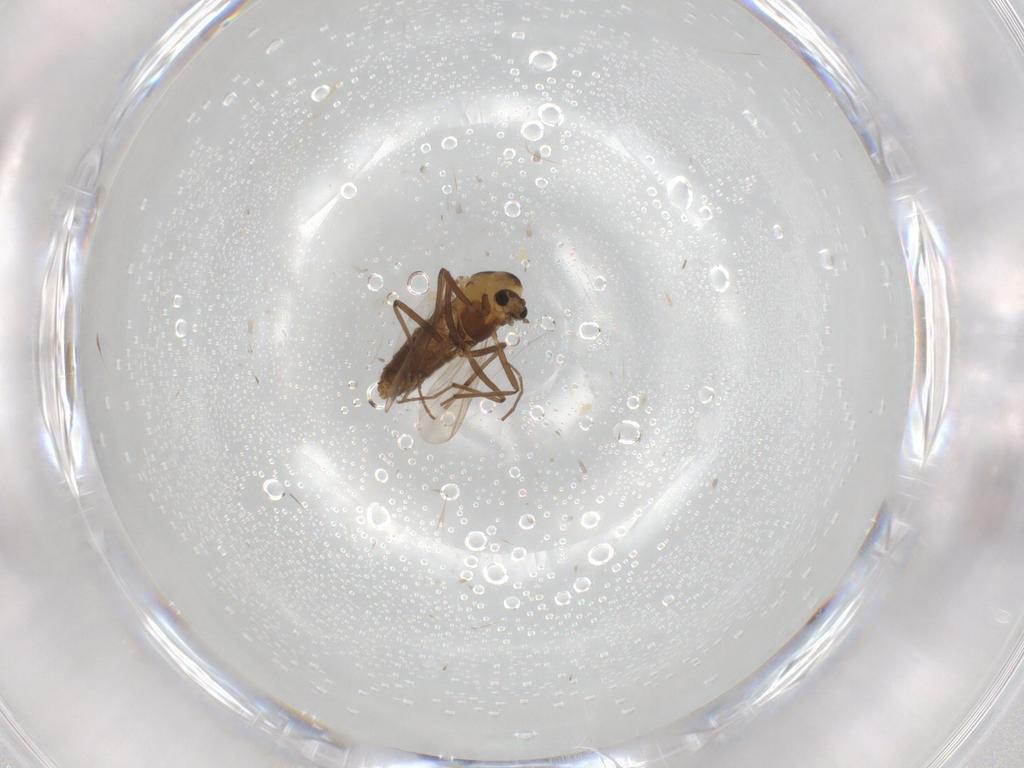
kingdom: Animalia
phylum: Arthropoda
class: Insecta
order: Diptera
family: Chironomidae
